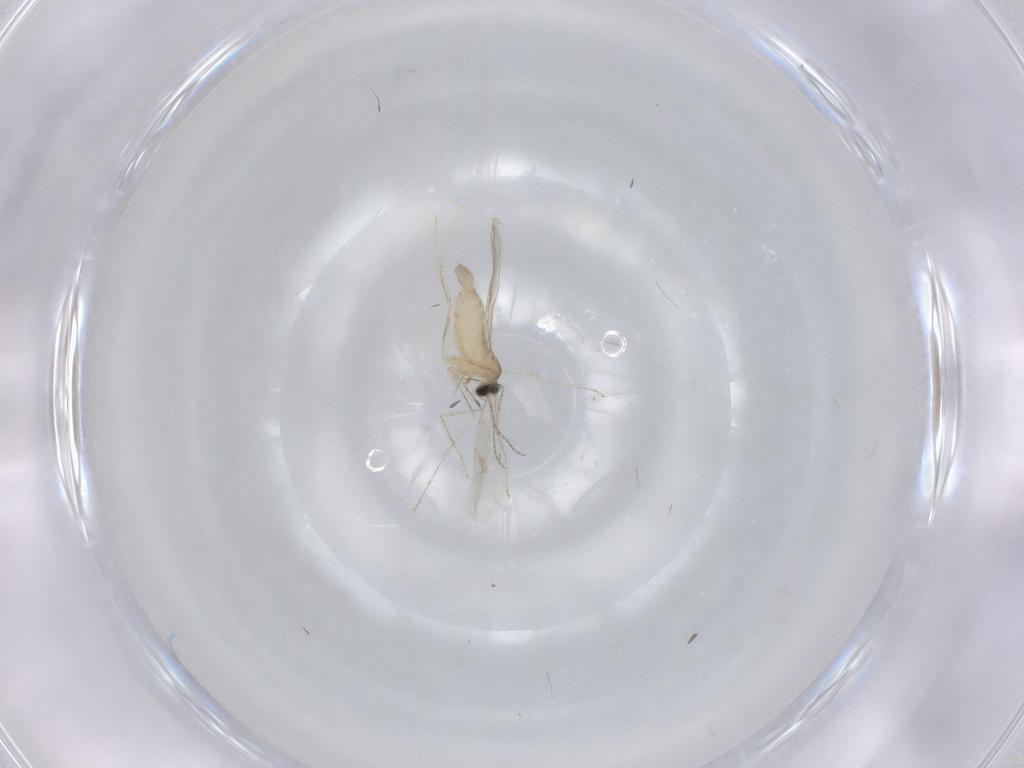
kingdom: Animalia
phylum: Arthropoda
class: Insecta
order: Diptera
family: Cecidomyiidae
